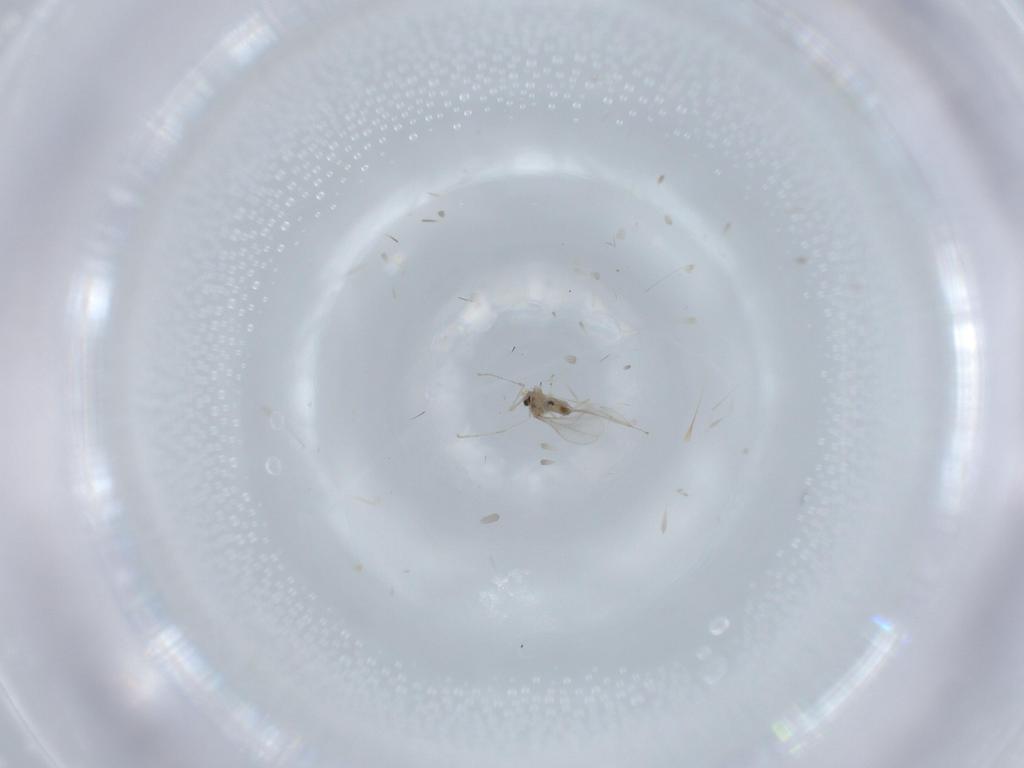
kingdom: Animalia
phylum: Arthropoda
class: Insecta
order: Diptera
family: Cecidomyiidae
